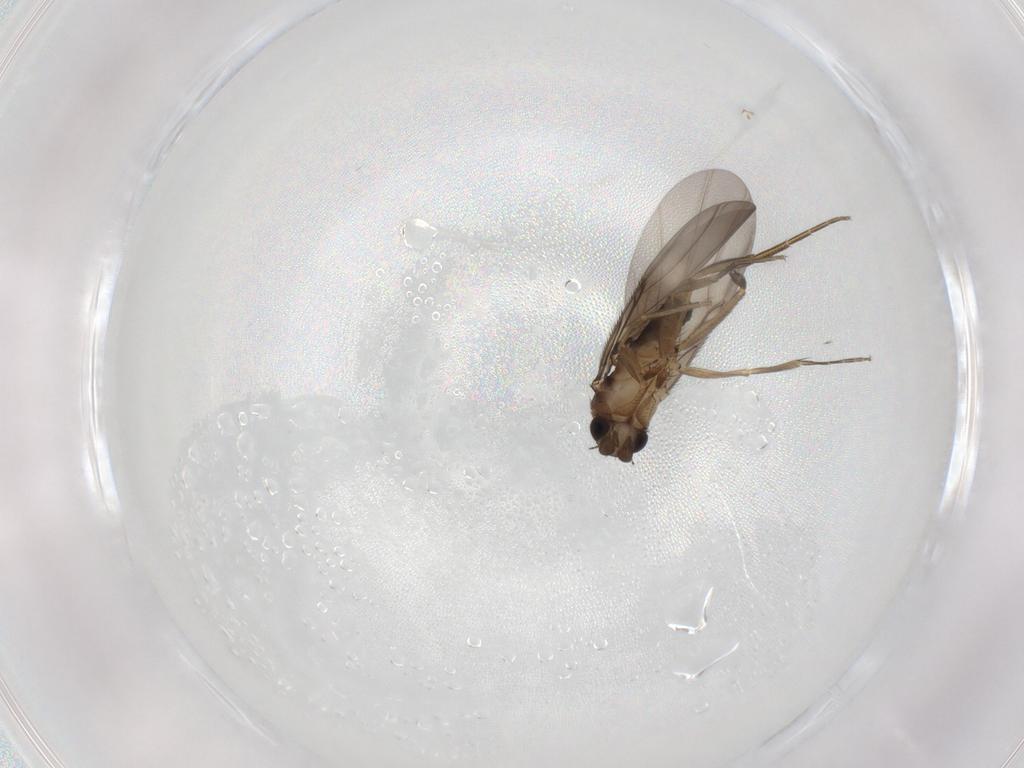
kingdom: Animalia
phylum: Arthropoda
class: Insecta
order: Diptera
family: Phoridae
